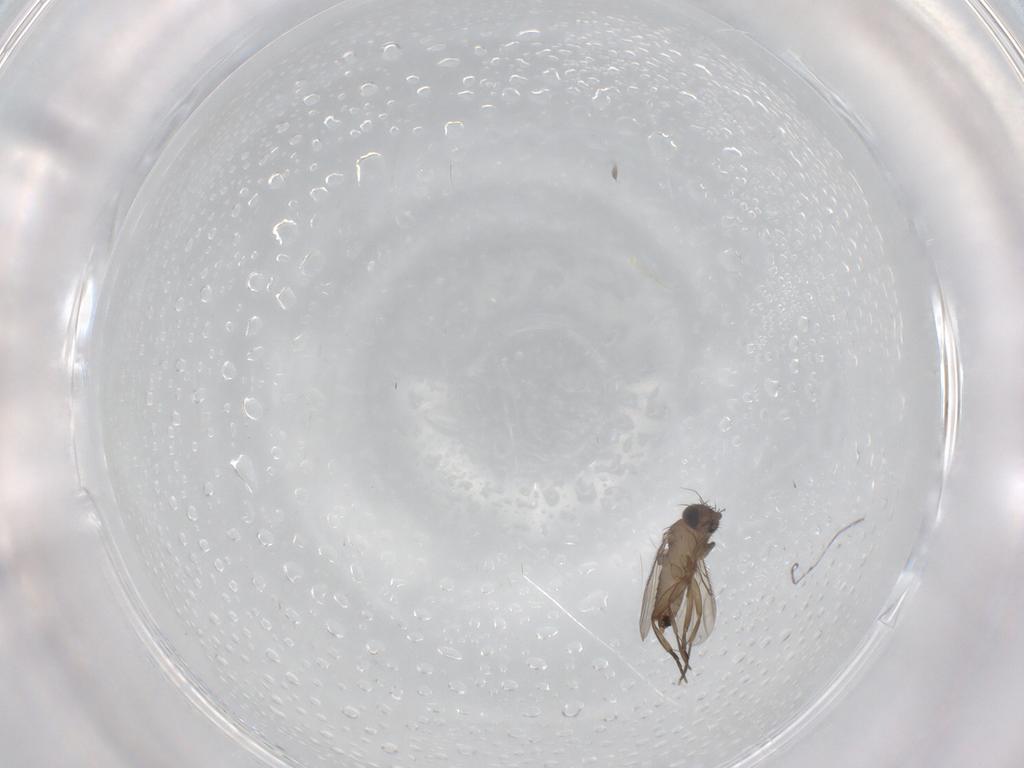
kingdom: Animalia
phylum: Arthropoda
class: Insecta
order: Diptera
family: Phoridae
